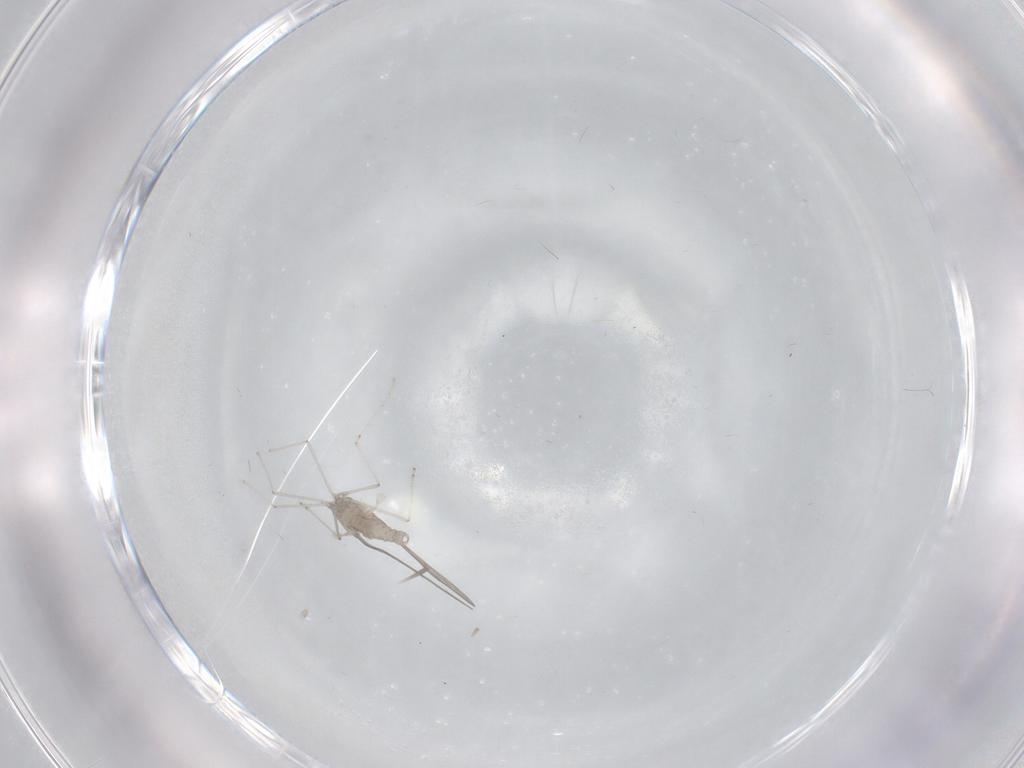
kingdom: Animalia
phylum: Arthropoda
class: Insecta
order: Diptera
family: Cecidomyiidae
